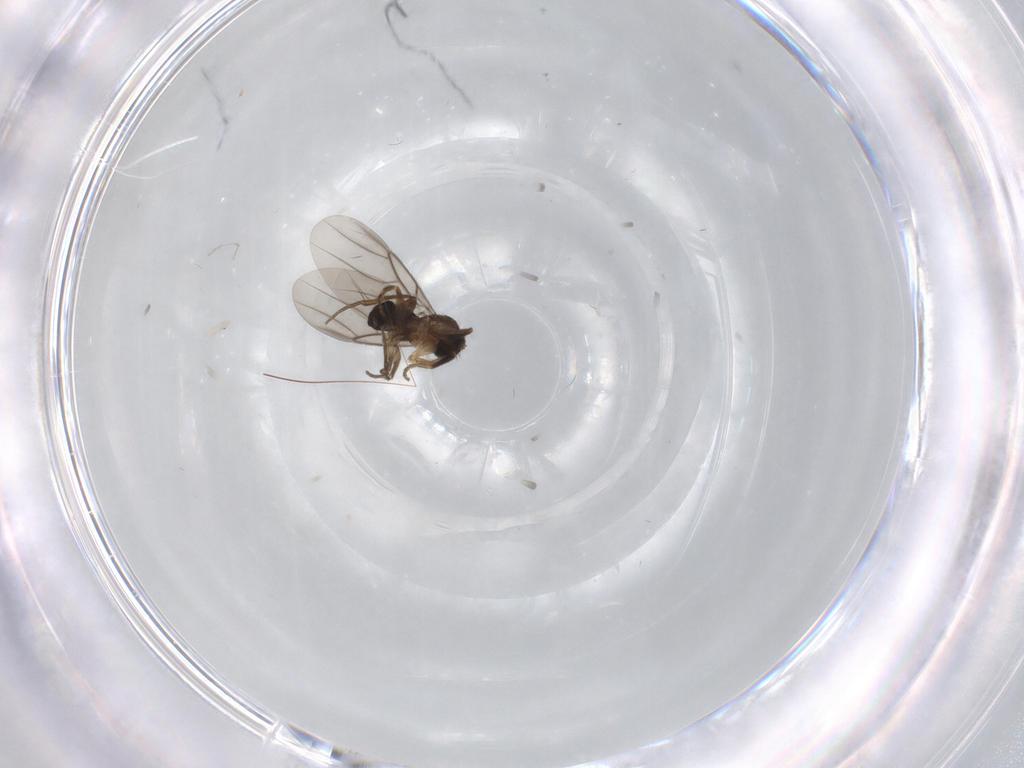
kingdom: Animalia
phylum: Arthropoda
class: Insecta
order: Diptera
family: Phoridae
